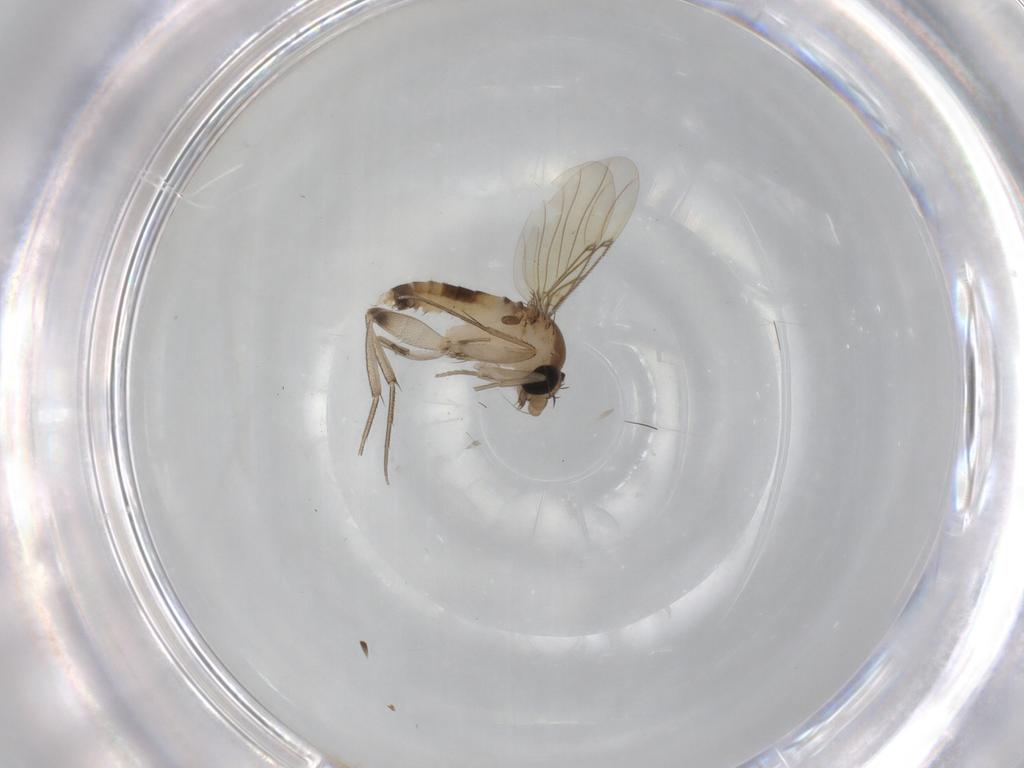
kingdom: Animalia
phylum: Arthropoda
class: Insecta
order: Diptera
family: Phoridae
